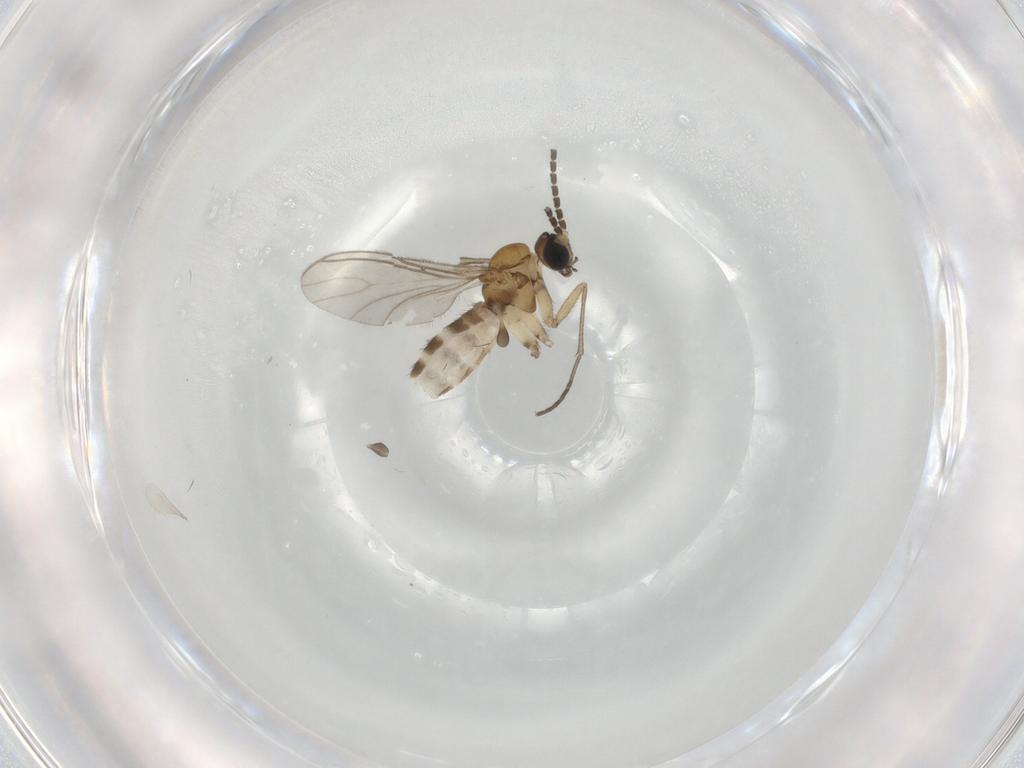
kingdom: Animalia
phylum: Arthropoda
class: Insecta
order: Diptera
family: Sciaridae
